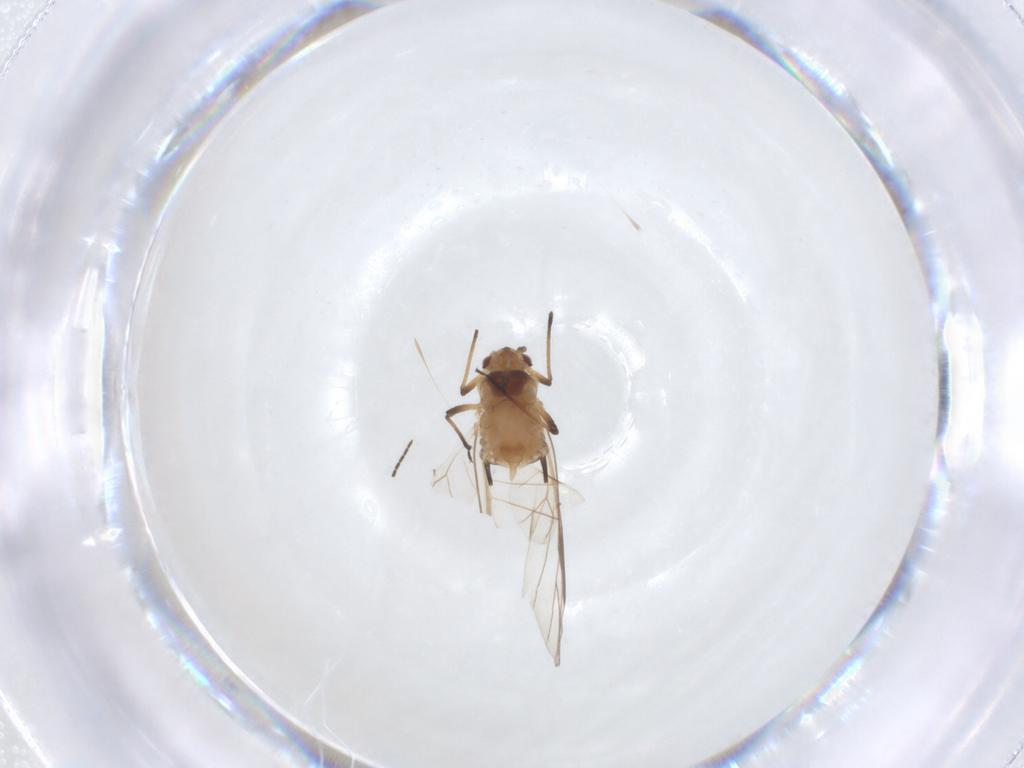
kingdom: Animalia
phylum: Arthropoda
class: Insecta
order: Hemiptera
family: Aphididae
